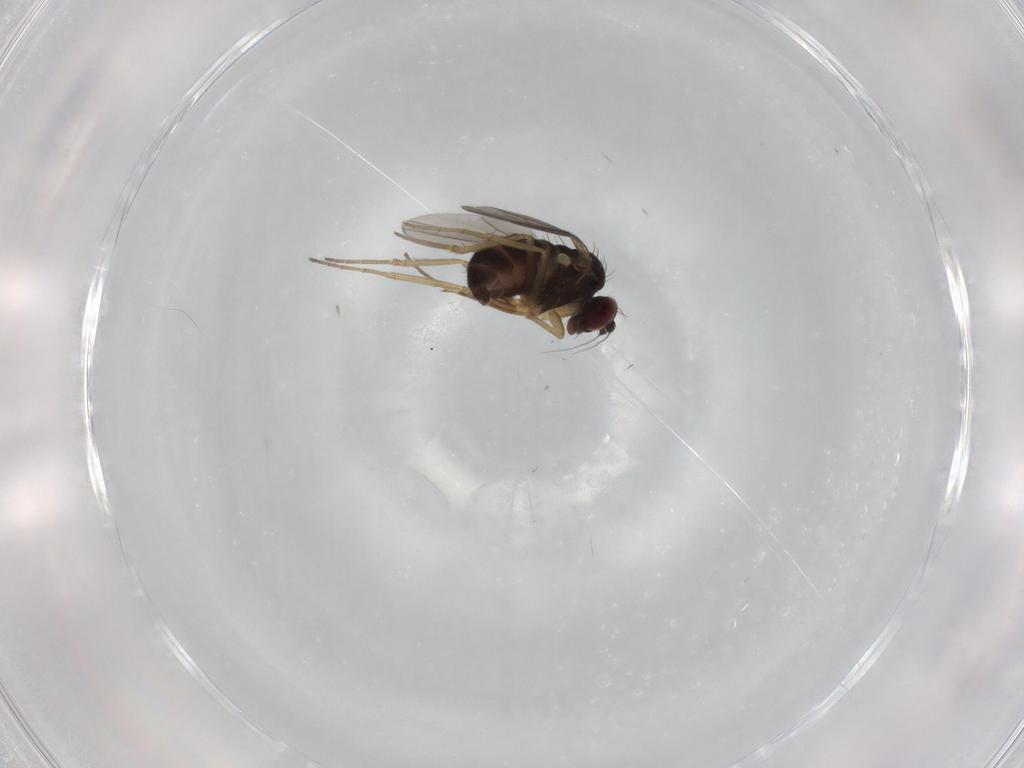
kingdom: Animalia
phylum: Arthropoda
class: Insecta
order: Diptera
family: Dolichopodidae
